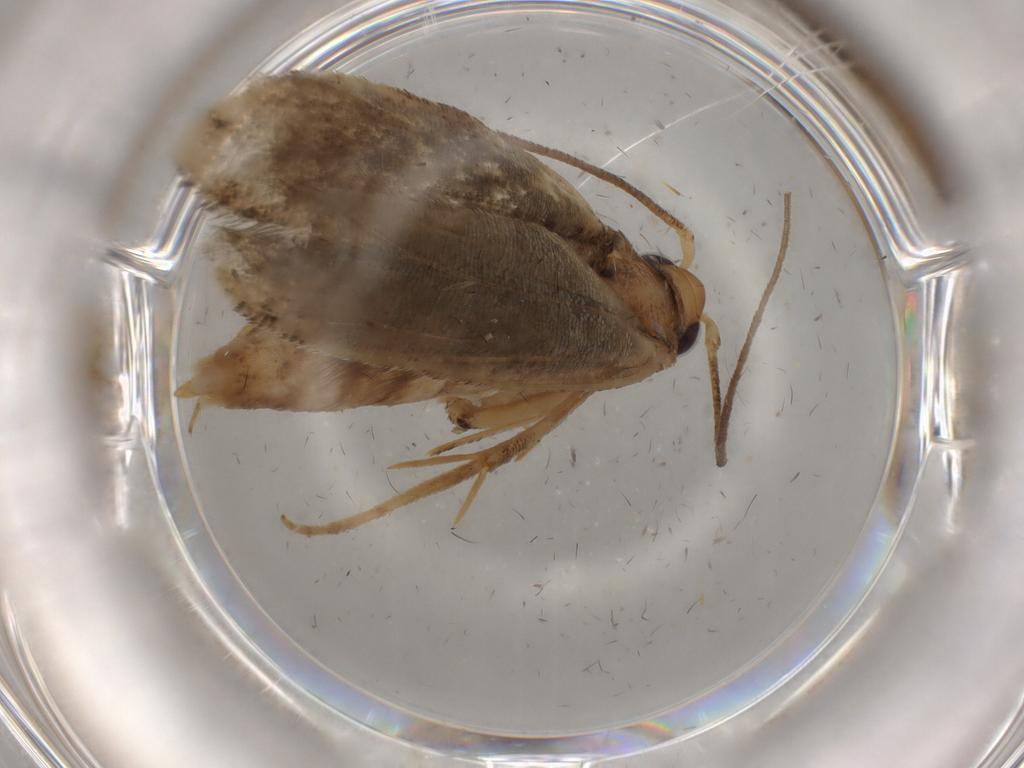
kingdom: Animalia
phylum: Arthropoda
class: Insecta
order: Lepidoptera
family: Yponomeutidae
